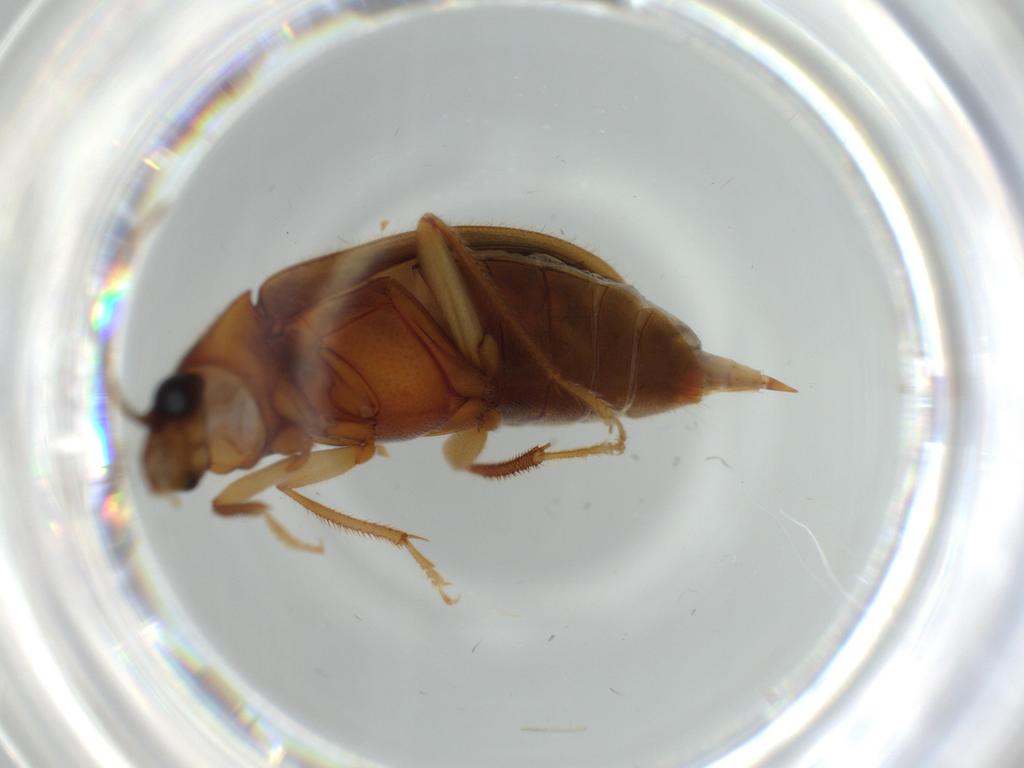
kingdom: Animalia
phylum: Arthropoda
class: Insecta
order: Coleoptera
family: Ptilodactylidae
